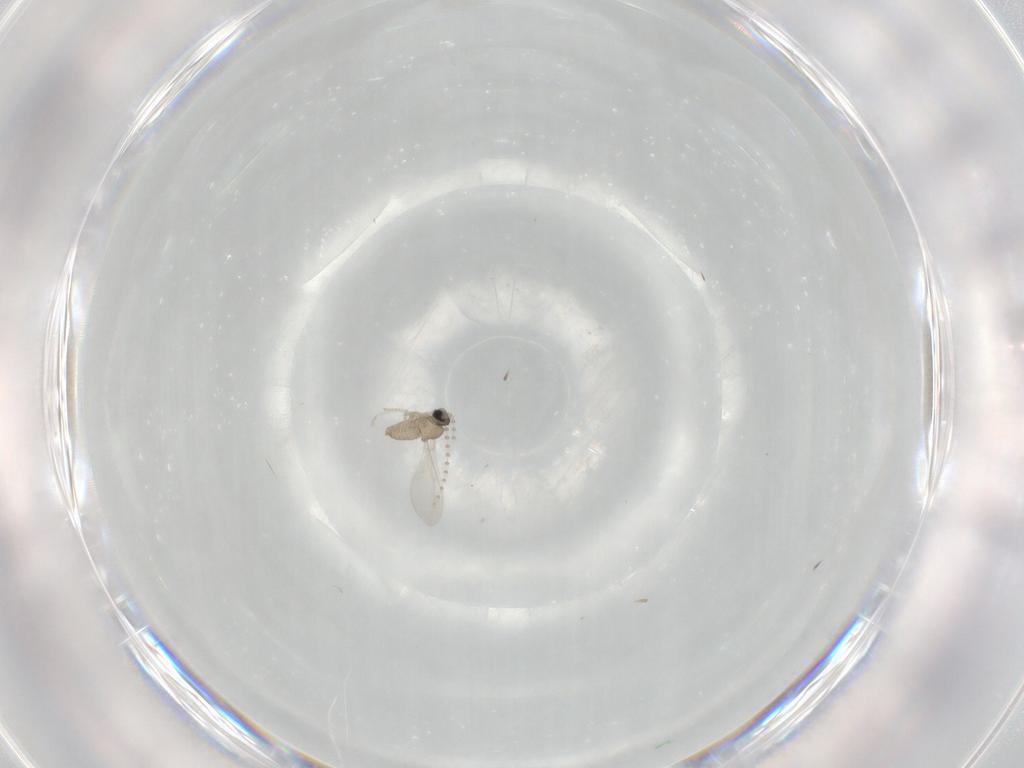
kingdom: Animalia
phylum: Arthropoda
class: Insecta
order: Diptera
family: Cecidomyiidae
